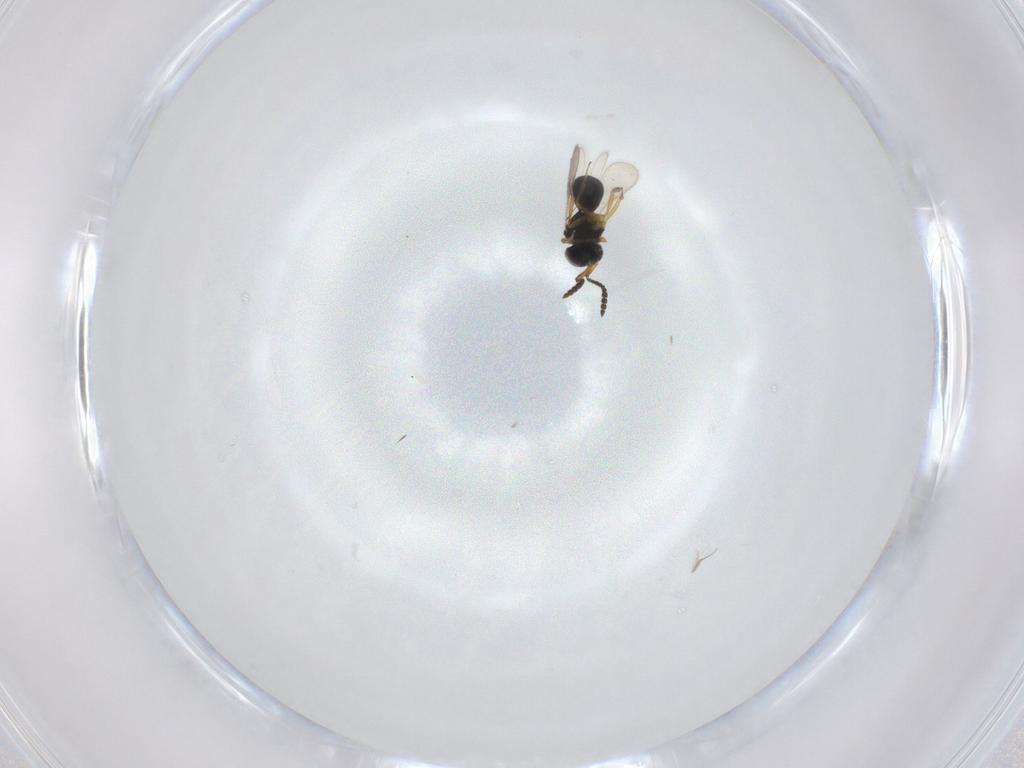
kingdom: Animalia
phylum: Arthropoda
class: Insecta
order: Hymenoptera
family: Scelionidae
